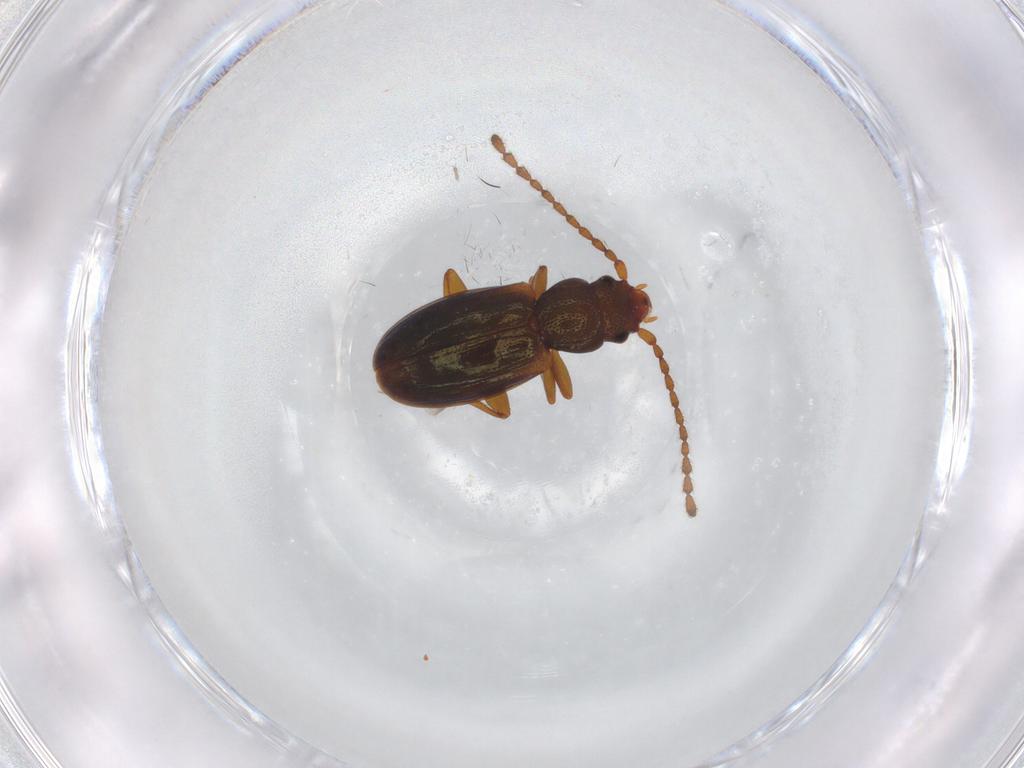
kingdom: Animalia
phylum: Arthropoda
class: Insecta
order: Coleoptera
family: Laemophloeidae
